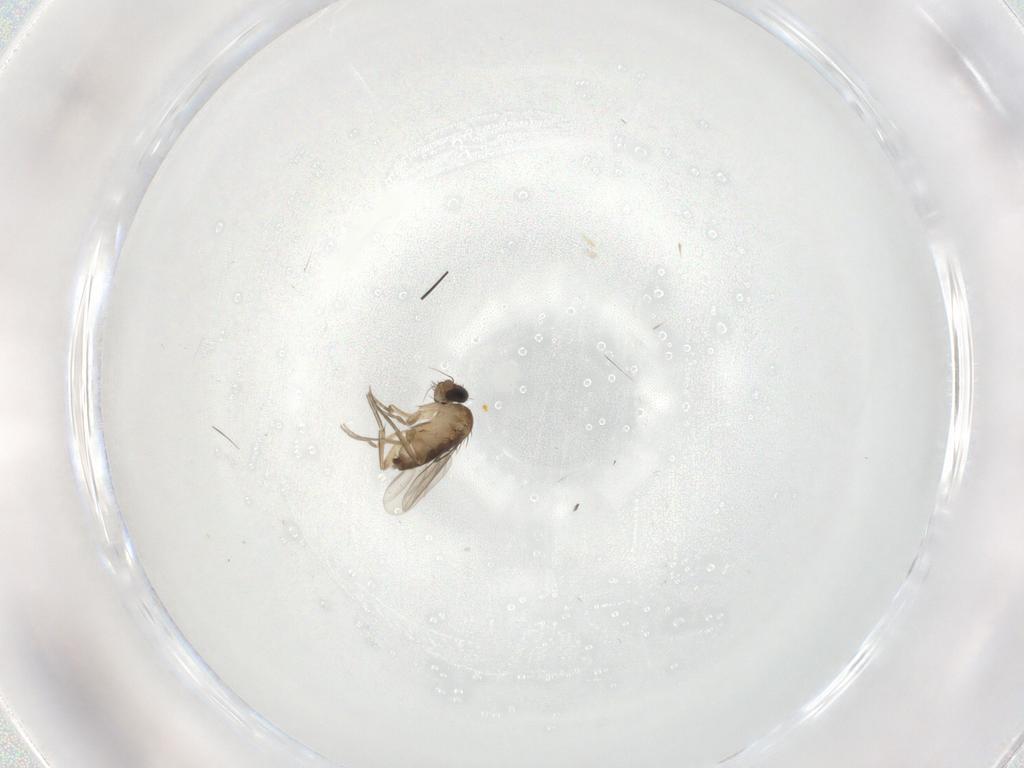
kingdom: Animalia
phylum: Arthropoda
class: Insecta
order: Diptera
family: Phoridae
